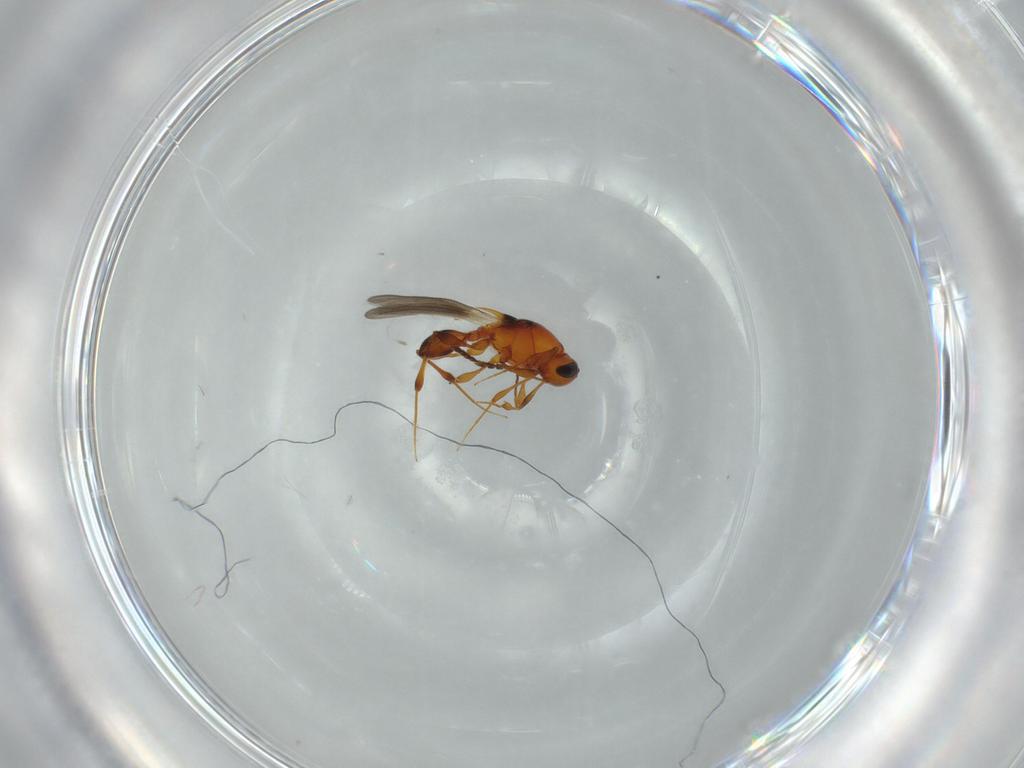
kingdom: Animalia
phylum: Arthropoda
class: Insecta
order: Hymenoptera
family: Platygastridae
